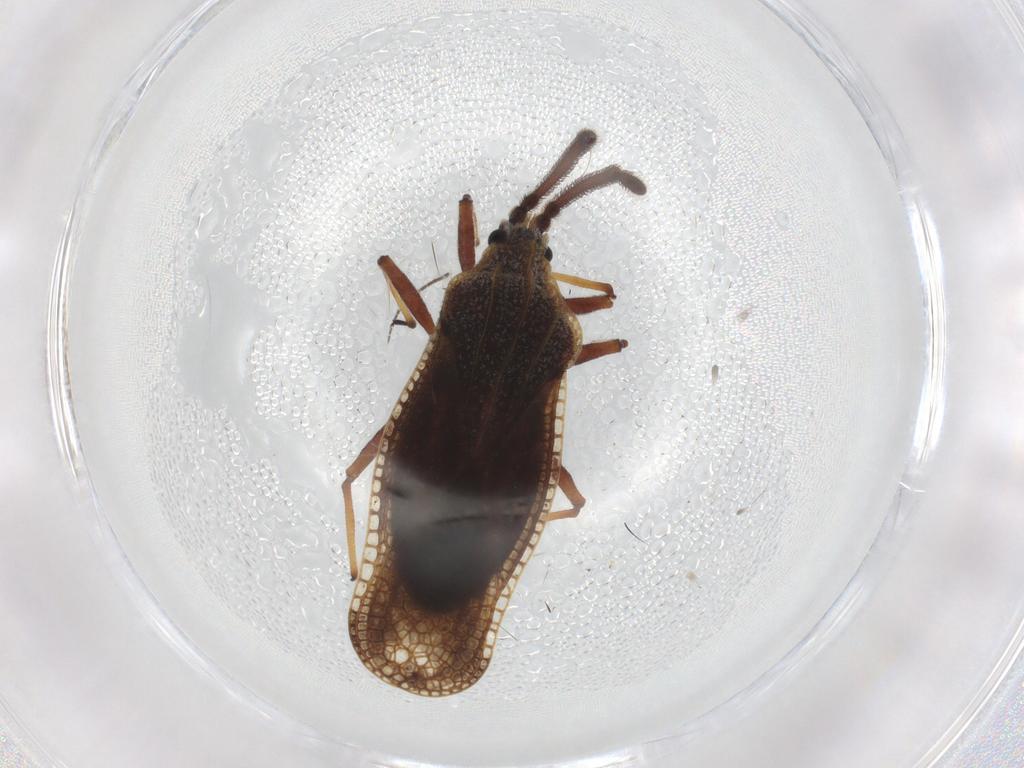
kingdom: Animalia
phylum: Arthropoda
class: Insecta
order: Hemiptera
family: Tingidae
